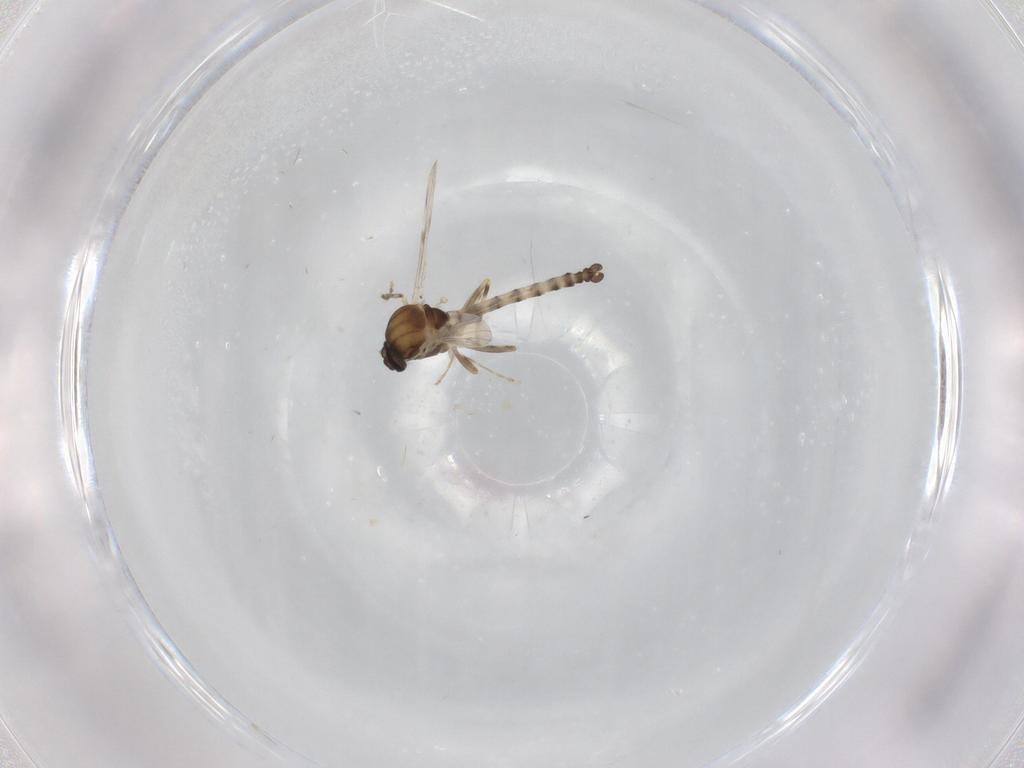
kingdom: Animalia
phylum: Arthropoda
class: Insecta
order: Diptera
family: Ceratopogonidae
